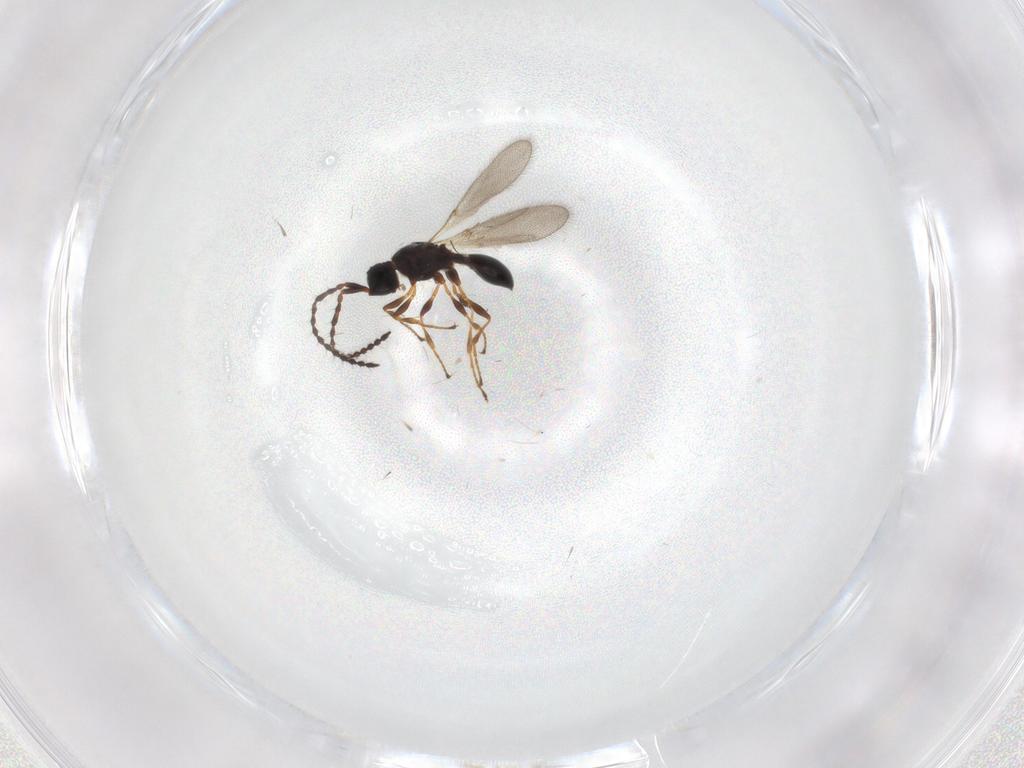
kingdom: Animalia
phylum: Arthropoda
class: Insecta
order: Hymenoptera
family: Diapriidae
